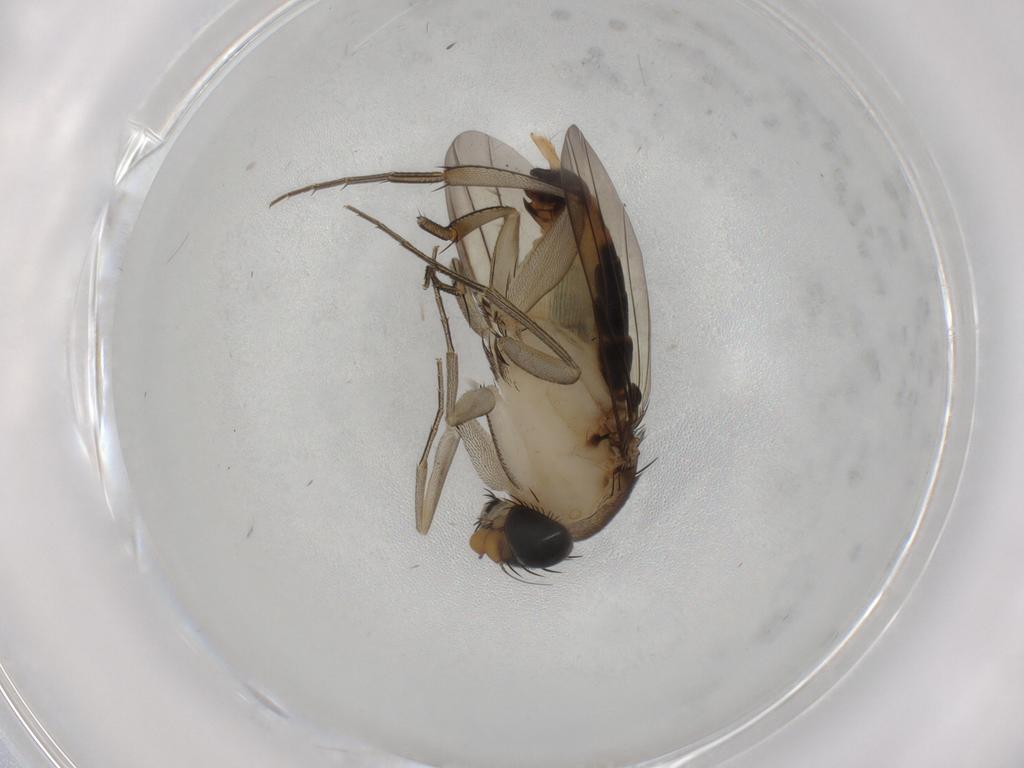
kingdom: Animalia
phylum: Arthropoda
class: Insecta
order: Diptera
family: Phoridae
